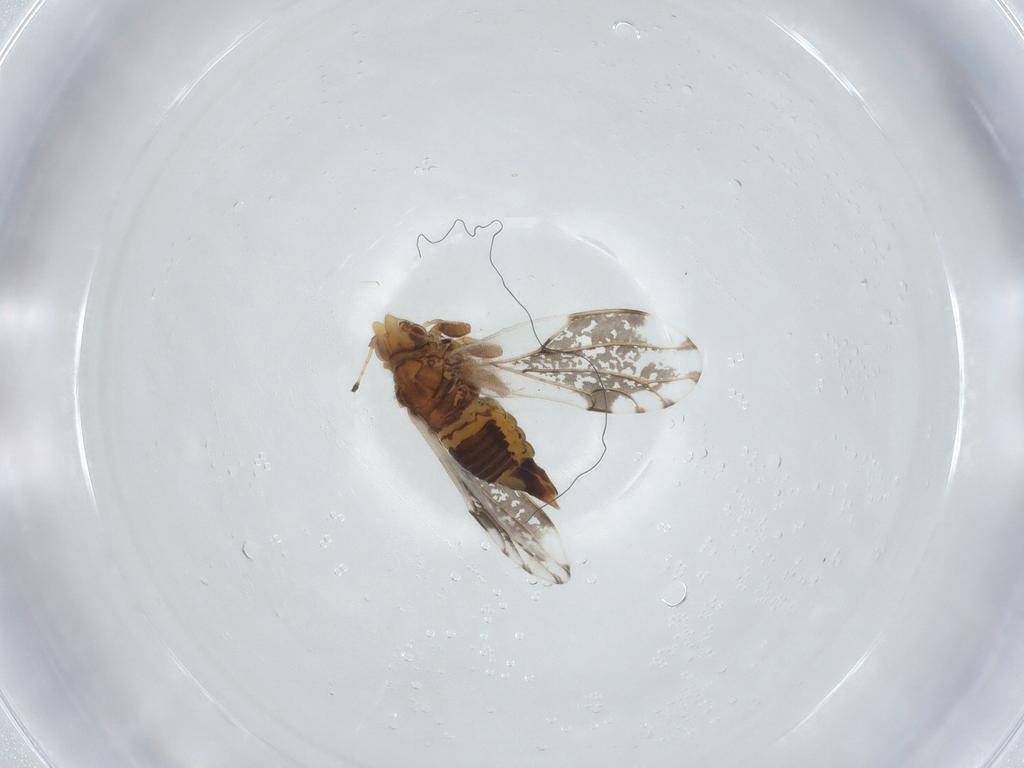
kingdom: Animalia
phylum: Arthropoda
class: Insecta
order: Hemiptera
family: Psylloidea_incertae_sedis
